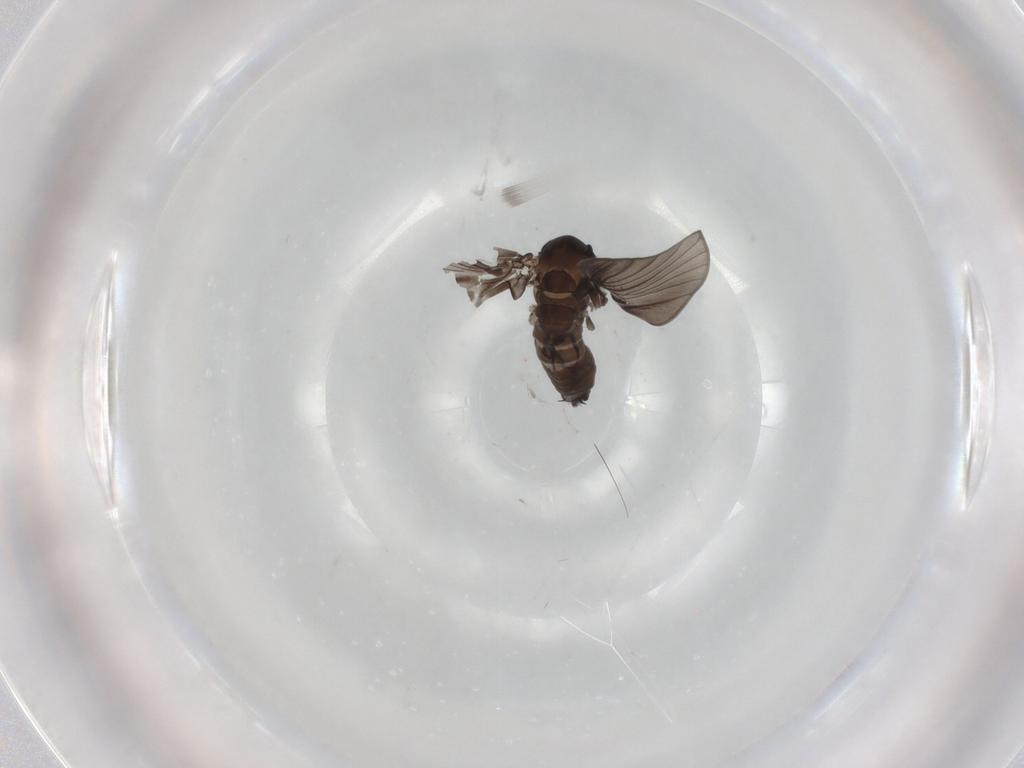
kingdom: Animalia
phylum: Arthropoda
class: Insecta
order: Diptera
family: Cecidomyiidae
